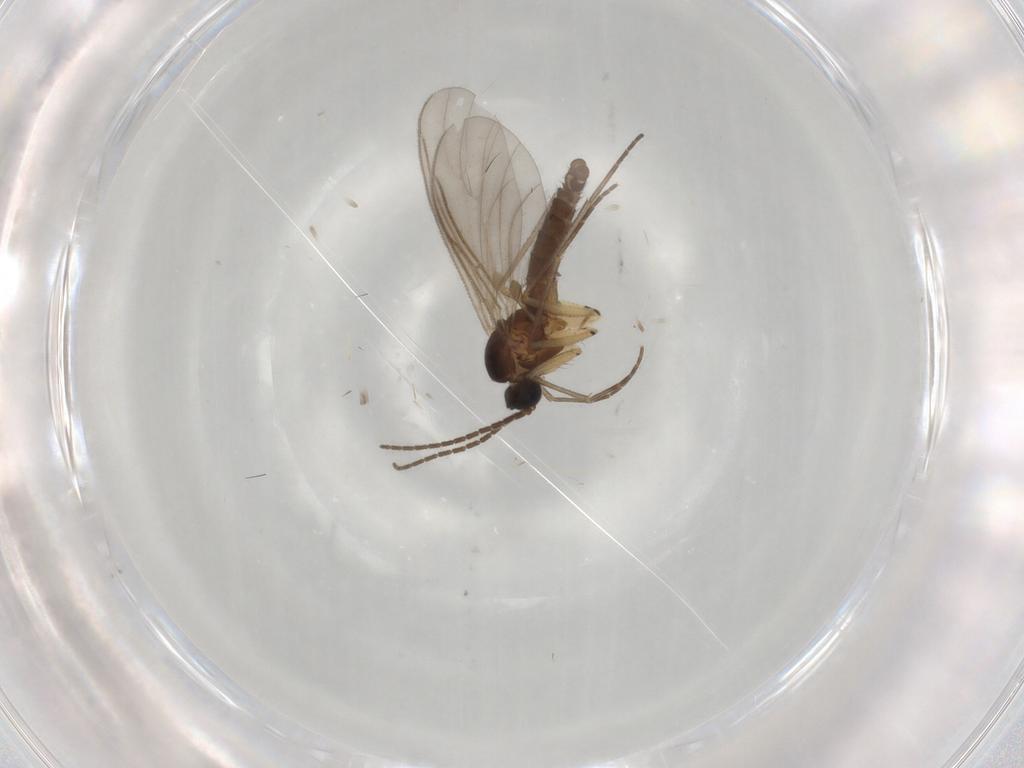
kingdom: Animalia
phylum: Arthropoda
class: Insecta
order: Diptera
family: Sciaridae
